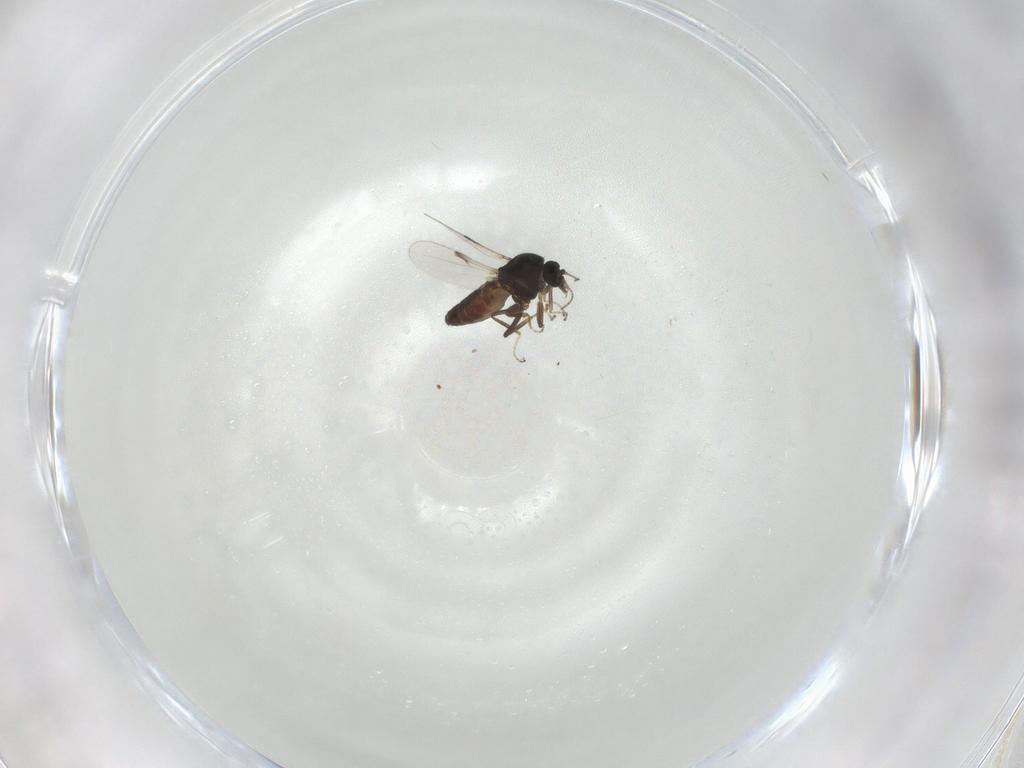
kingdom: Animalia
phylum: Arthropoda
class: Insecta
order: Diptera
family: Ceratopogonidae
